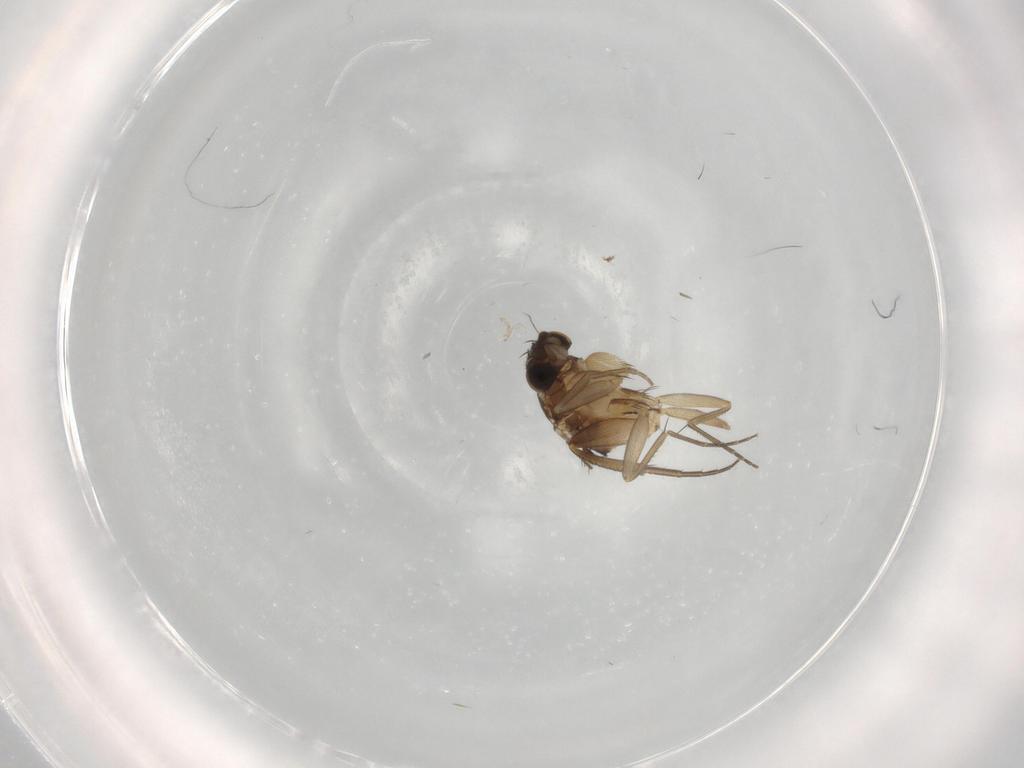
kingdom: Animalia
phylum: Arthropoda
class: Insecta
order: Diptera
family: Phoridae
